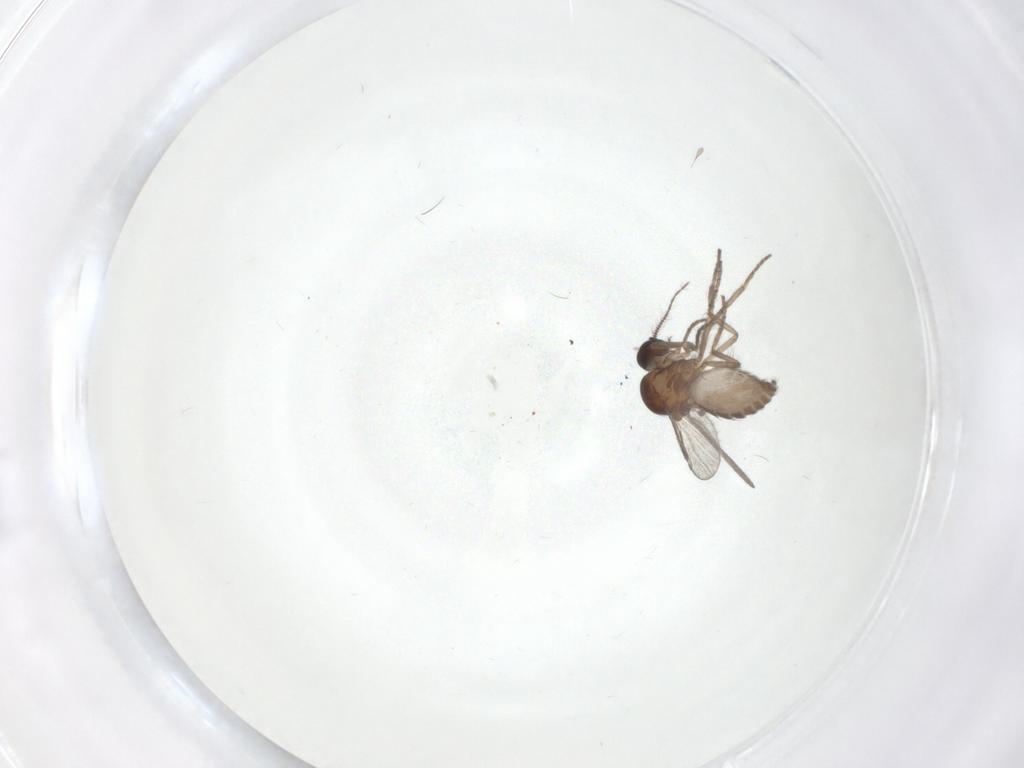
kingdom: Animalia
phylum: Arthropoda
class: Insecta
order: Diptera
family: Ceratopogonidae
